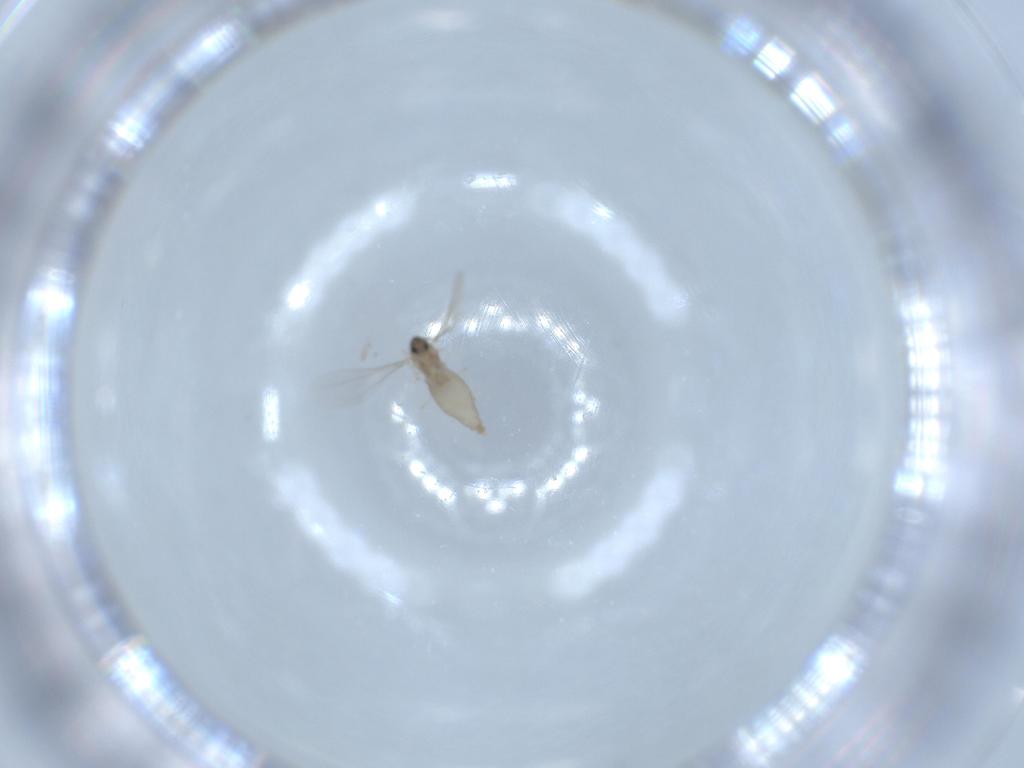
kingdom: Animalia
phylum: Arthropoda
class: Insecta
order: Diptera
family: Cecidomyiidae
